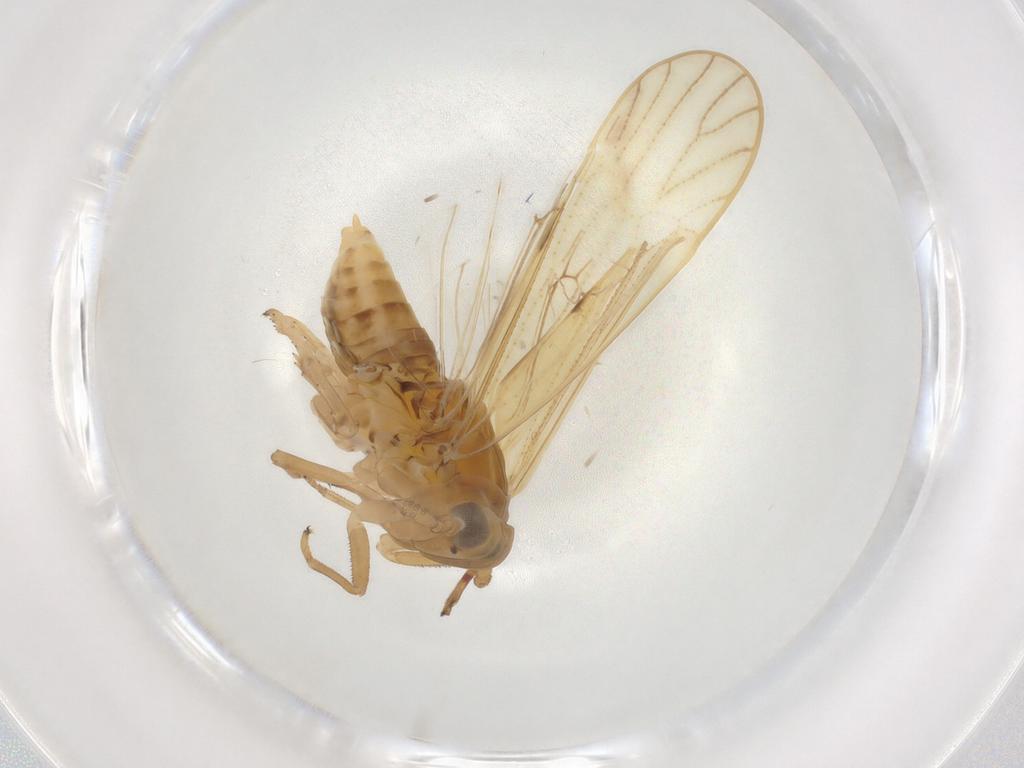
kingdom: Animalia
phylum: Arthropoda
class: Insecta
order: Hemiptera
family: Delphacidae
